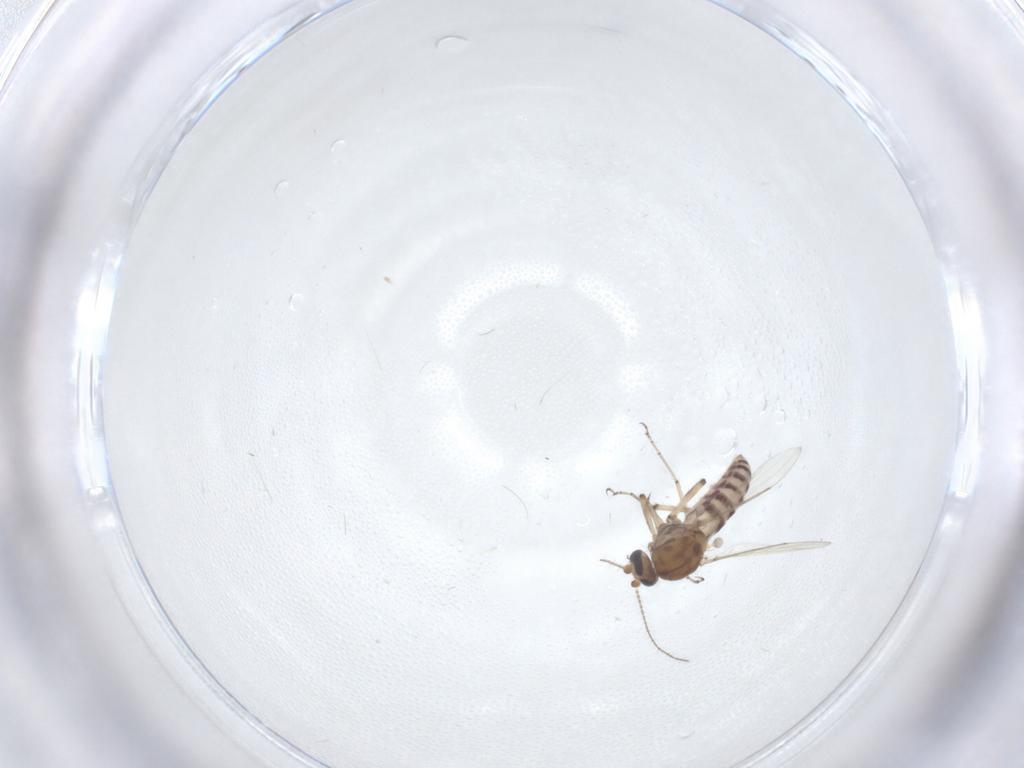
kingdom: Animalia
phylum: Arthropoda
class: Insecta
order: Diptera
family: Ceratopogonidae
